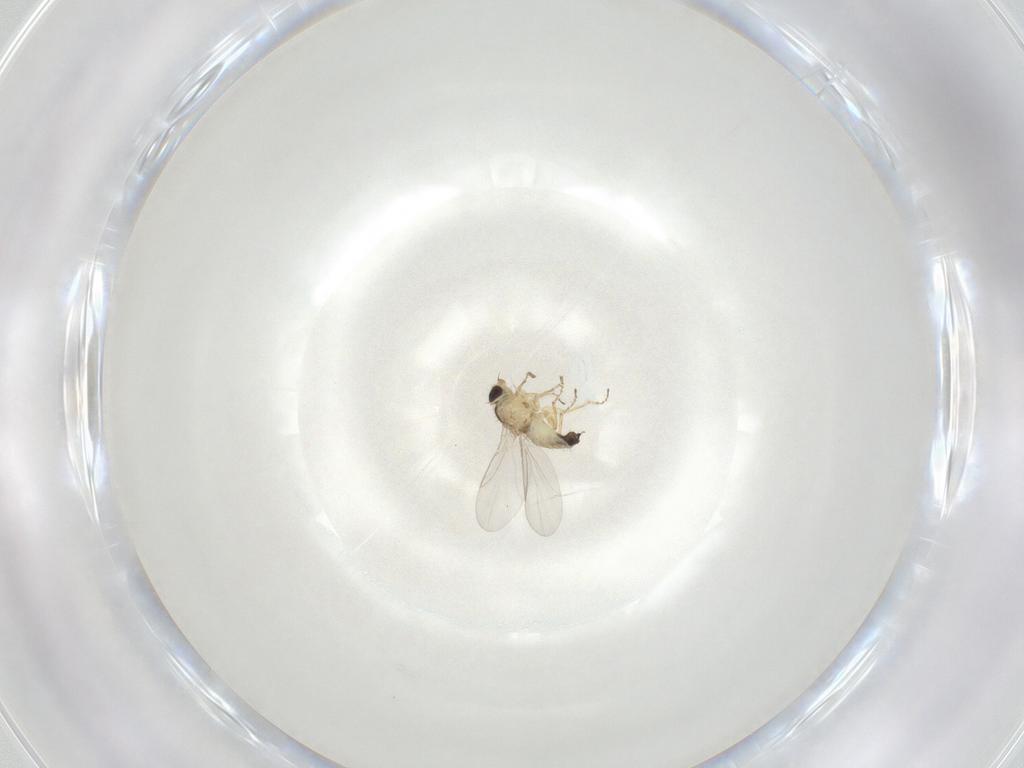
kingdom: Animalia
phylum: Arthropoda
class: Insecta
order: Diptera
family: Agromyzidae
